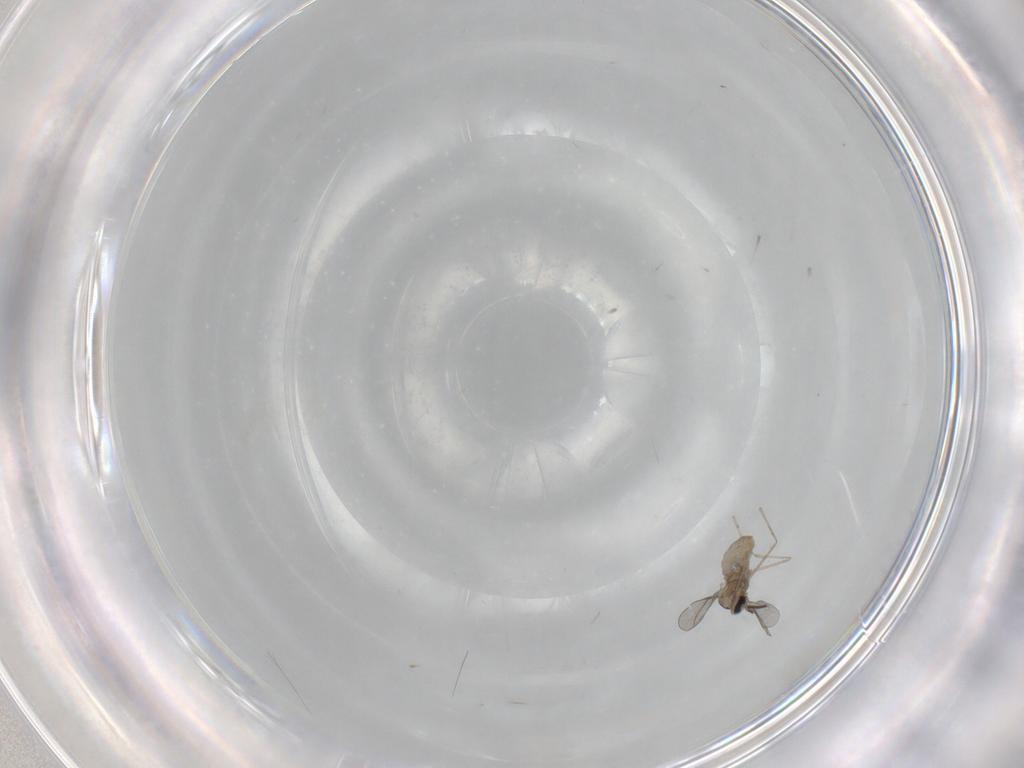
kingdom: Animalia
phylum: Arthropoda
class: Insecta
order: Diptera
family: Cecidomyiidae
